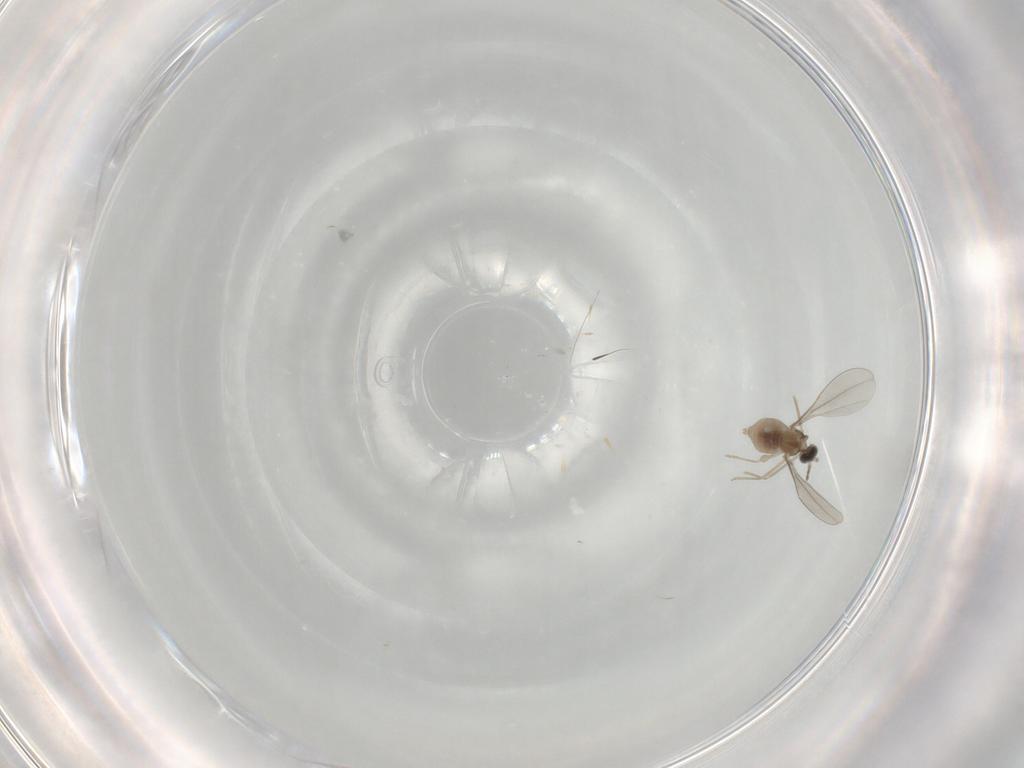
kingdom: Animalia
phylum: Arthropoda
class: Insecta
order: Diptera
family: Cecidomyiidae
